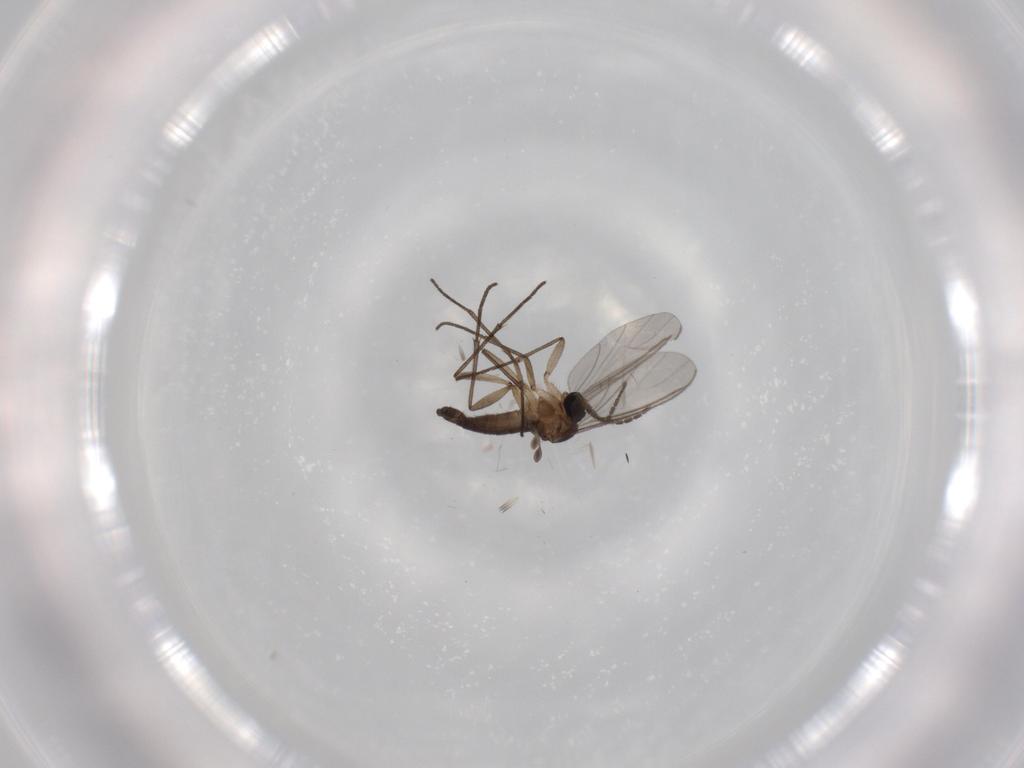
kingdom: Animalia
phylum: Arthropoda
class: Insecta
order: Diptera
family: Sciaridae
